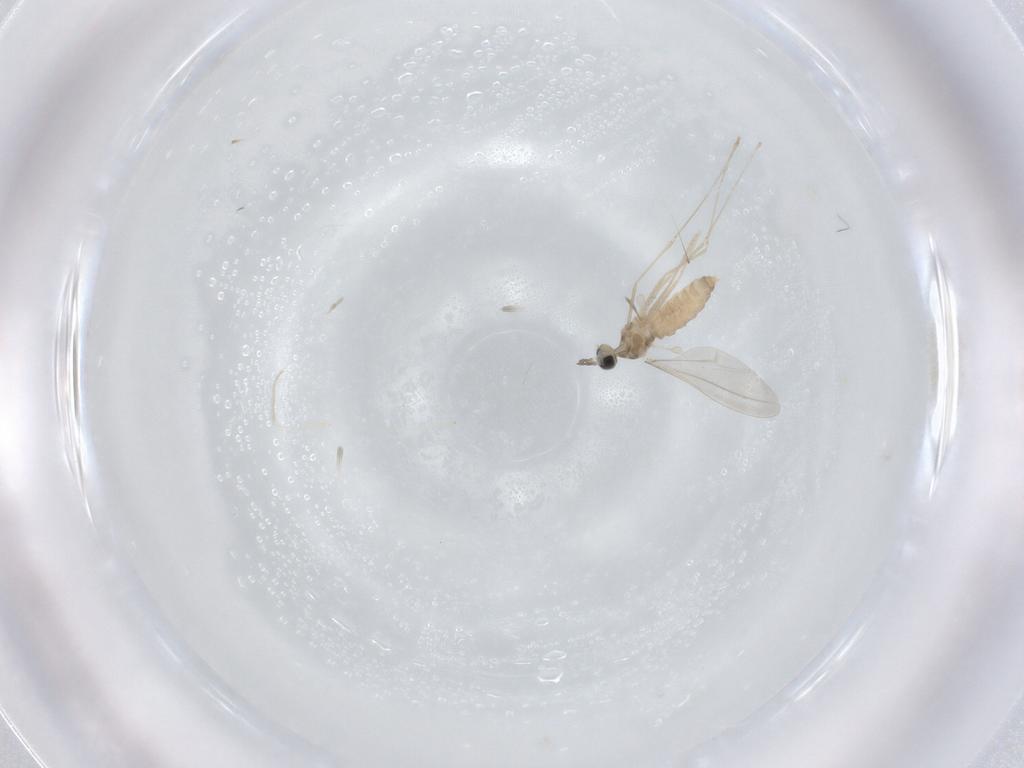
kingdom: Animalia
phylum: Arthropoda
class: Insecta
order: Diptera
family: Cecidomyiidae
